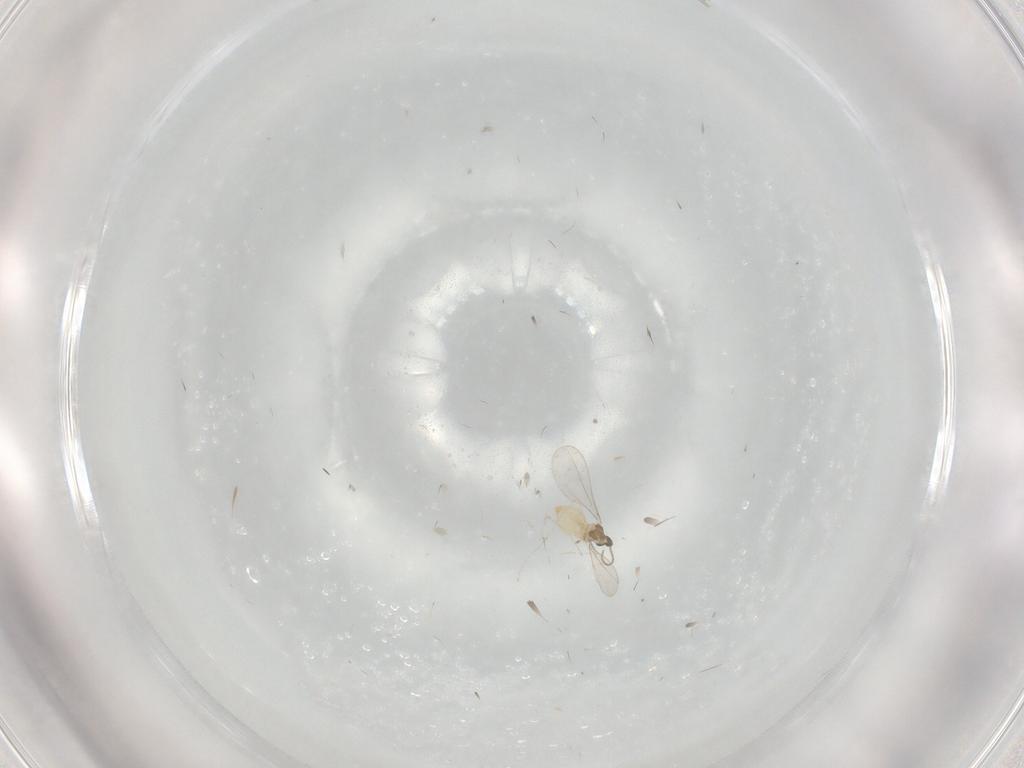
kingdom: Animalia
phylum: Arthropoda
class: Insecta
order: Diptera
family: Cecidomyiidae
